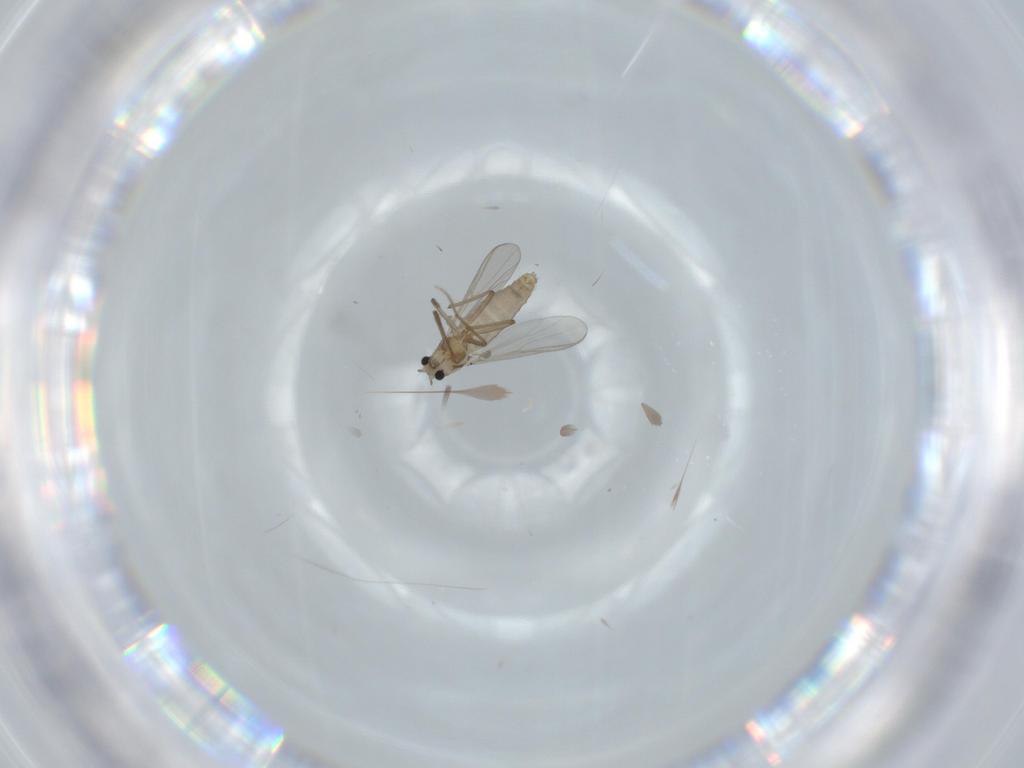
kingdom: Animalia
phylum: Arthropoda
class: Insecta
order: Diptera
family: Chironomidae
